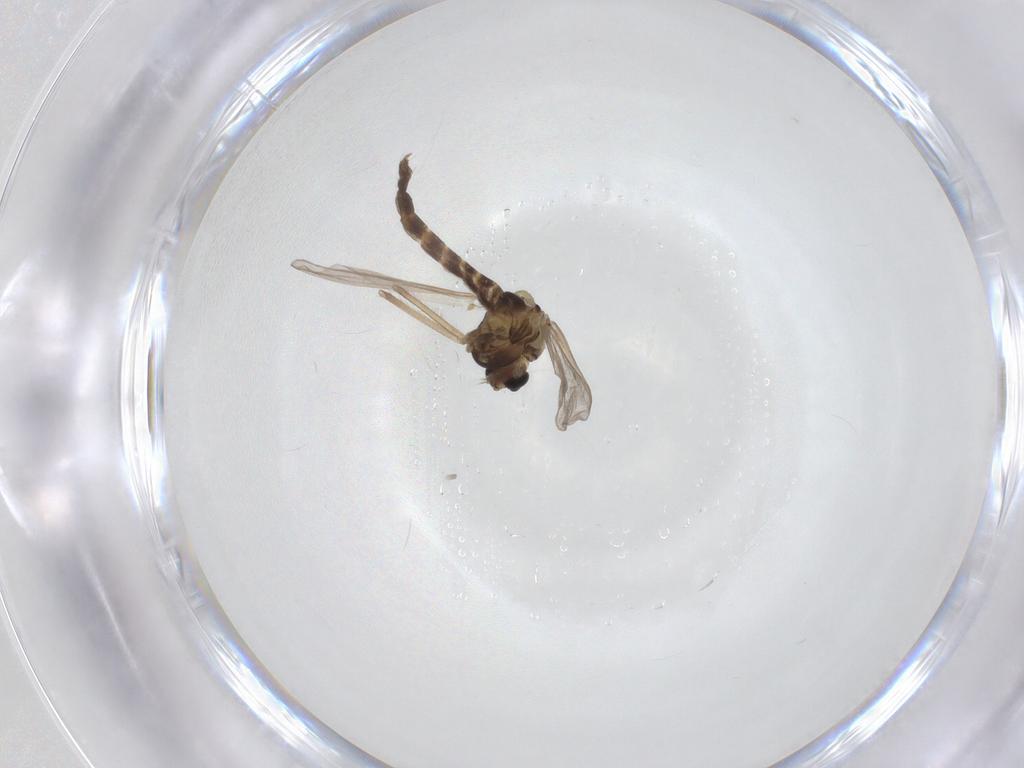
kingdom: Animalia
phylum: Arthropoda
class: Insecta
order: Diptera
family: Chironomidae
